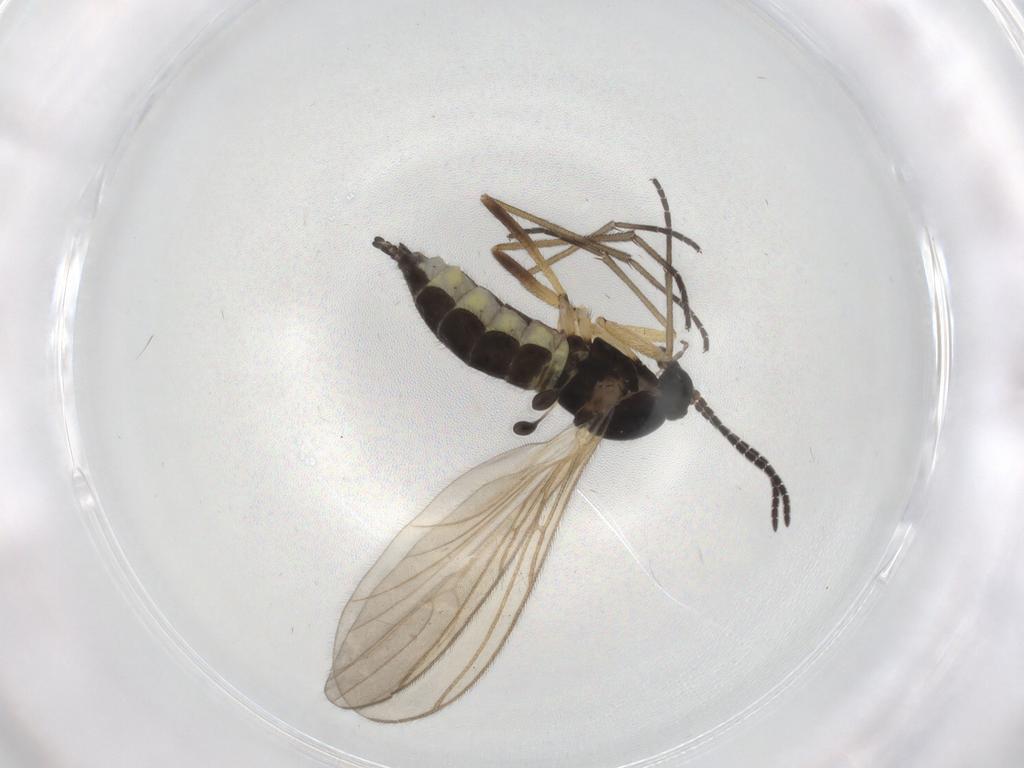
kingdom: Animalia
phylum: Arthropoda
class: Insecta
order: Diptera
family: Sciaridae
